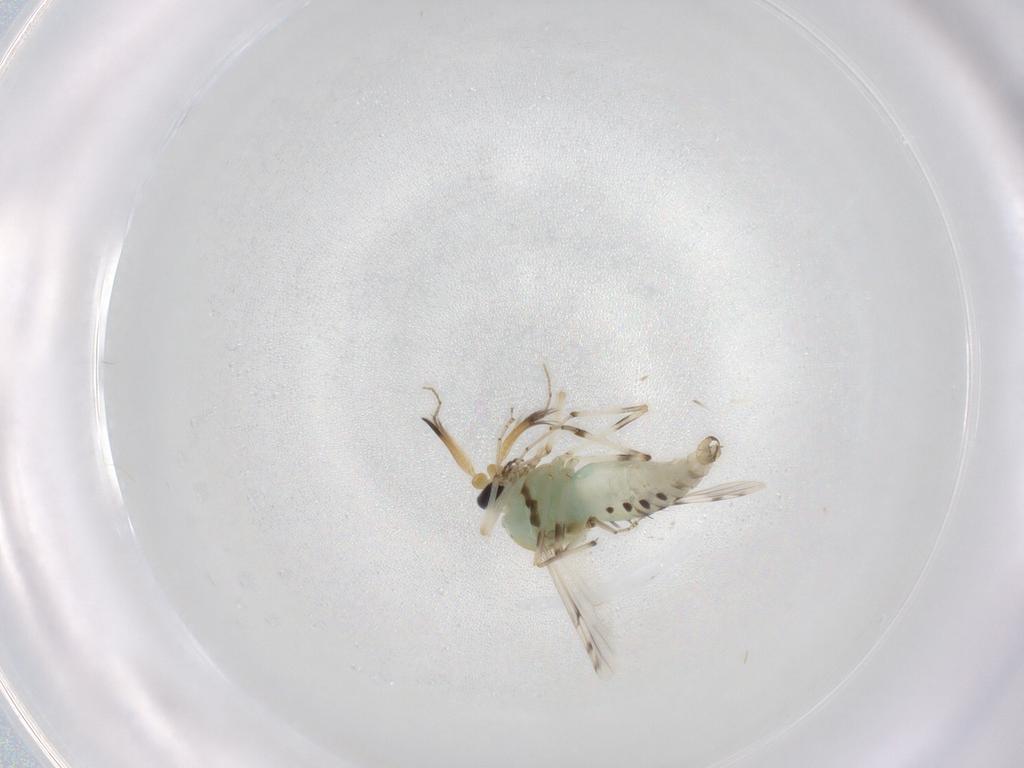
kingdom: Animalia
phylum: Arthropoda
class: Insecta
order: Diptera
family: Ceratopogonidae
